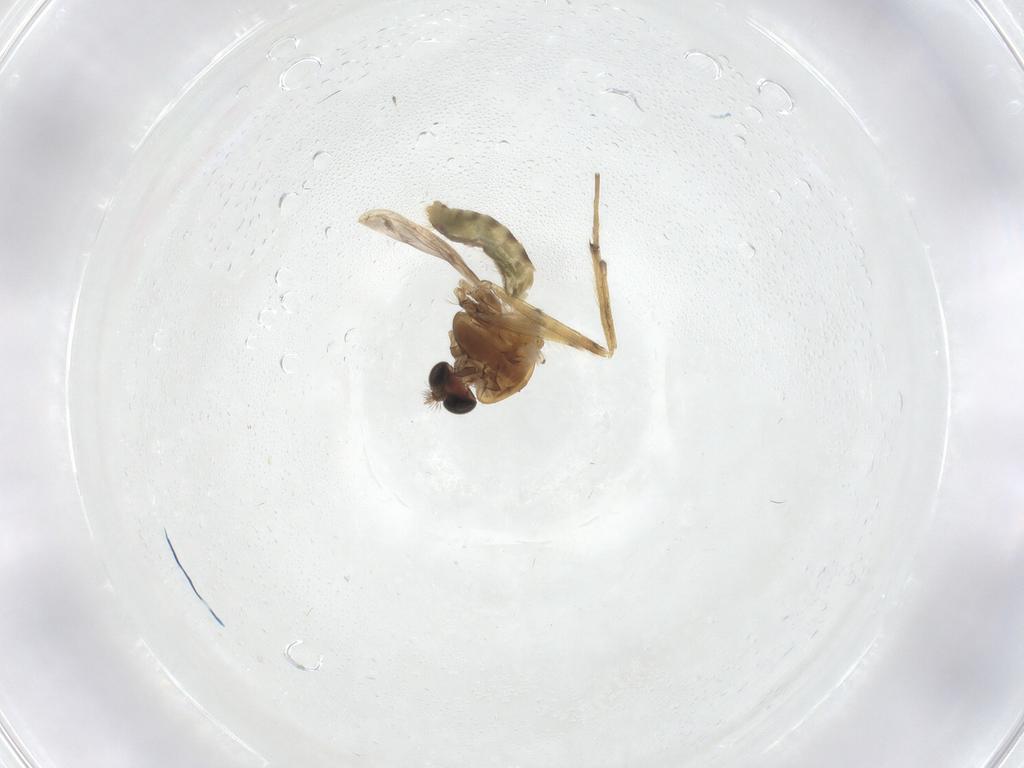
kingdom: Animalia
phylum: Arthropoda
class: Insecta
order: Diptera
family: Chironomidae
